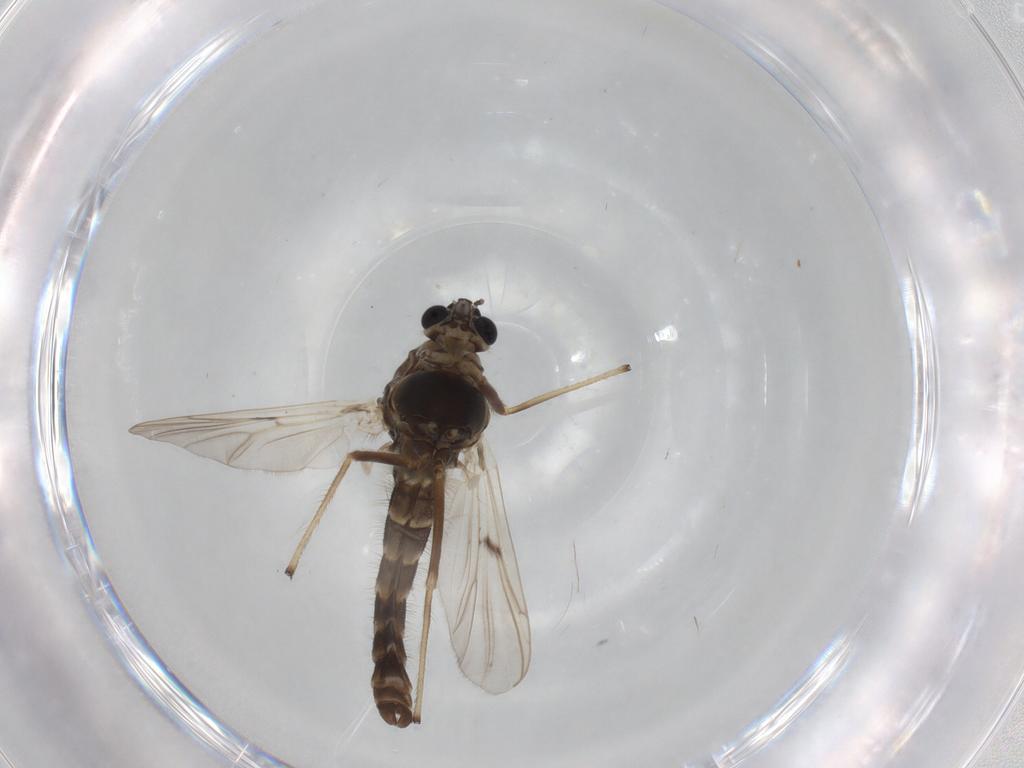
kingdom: Animalia
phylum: Arthropoda
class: Insecta
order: Diptera
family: Chironomidae
